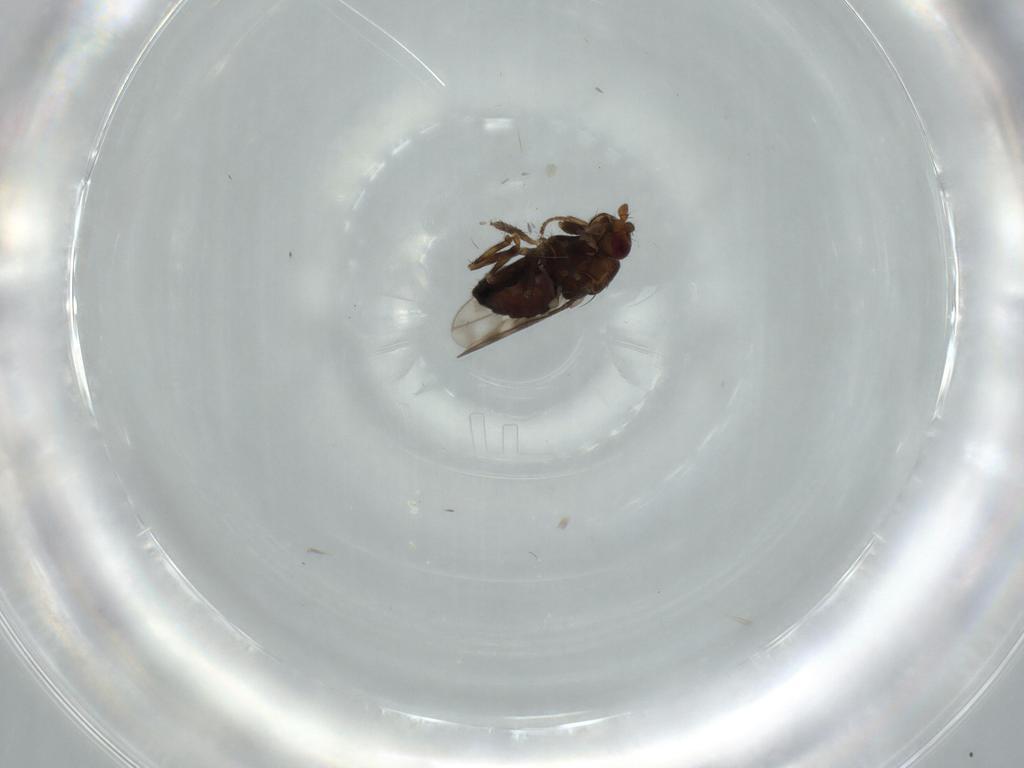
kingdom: Animalia
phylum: Arthropoda
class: Insecta
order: Diptera
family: Sphaeroceridae
